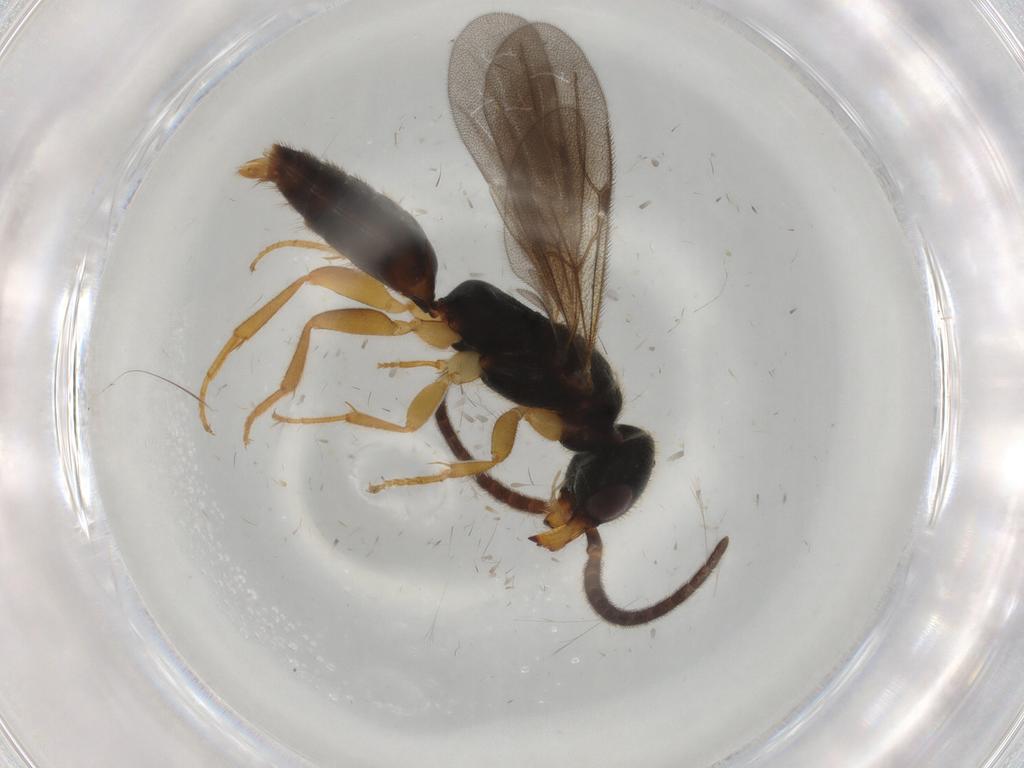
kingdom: Animalia
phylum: Arthropoda
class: Insecta
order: Hymenoptera
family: Bethylidae
